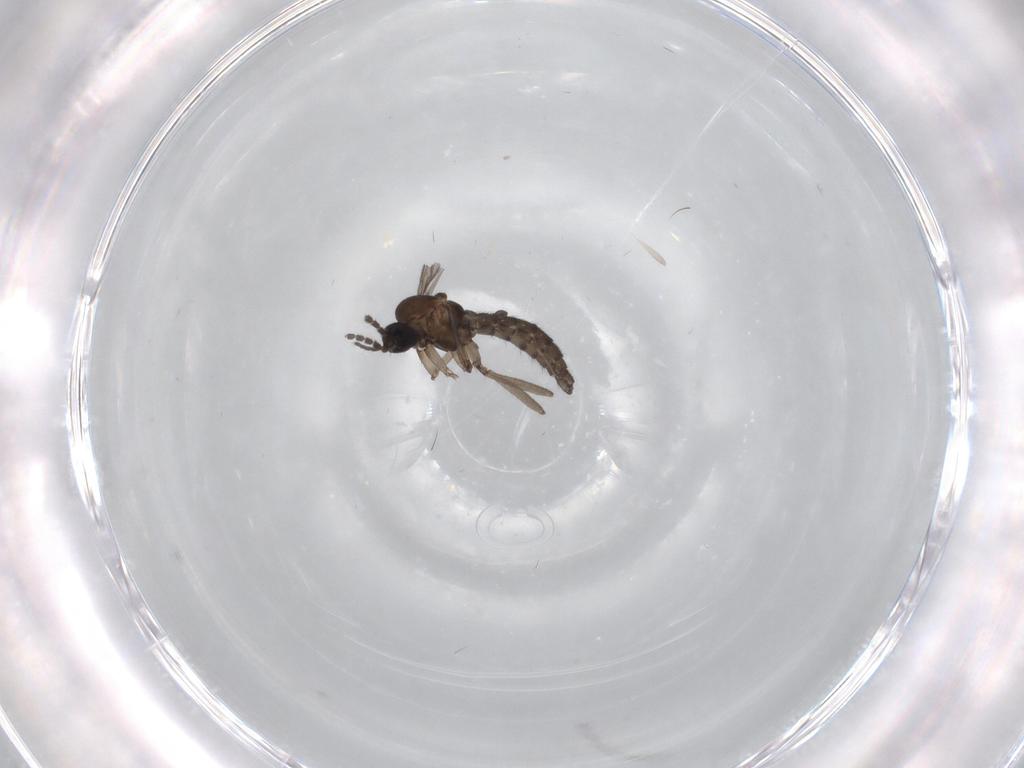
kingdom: Animalia
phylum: Arthropoda
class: Insecta
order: Diptera
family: Sciaridae
